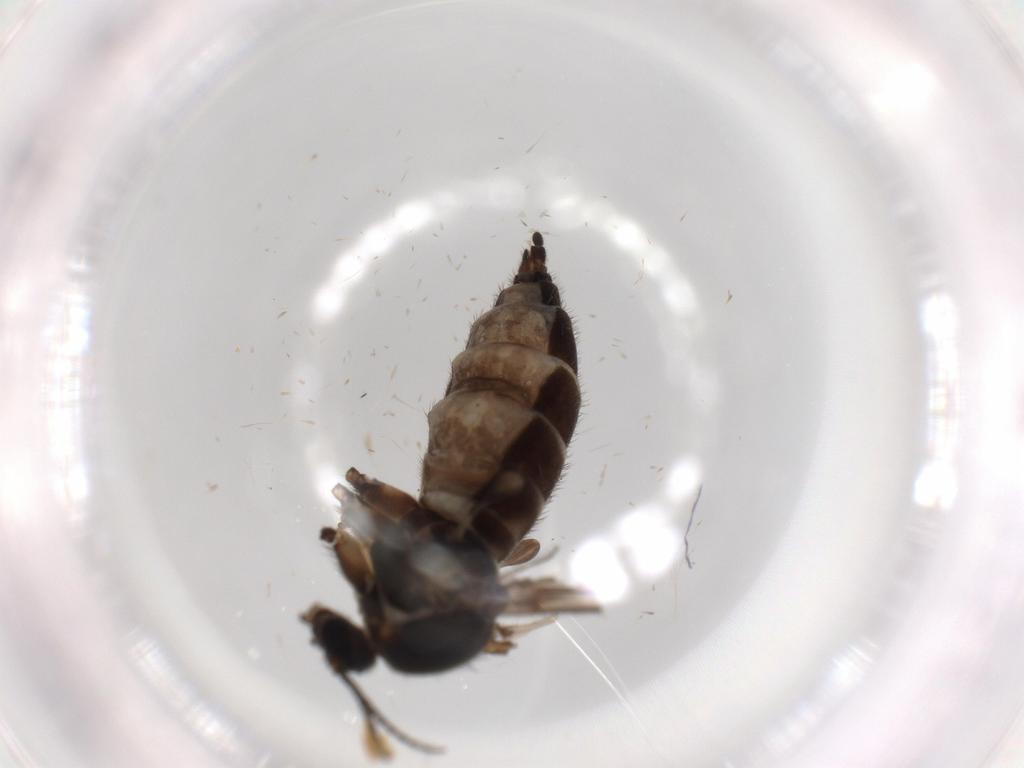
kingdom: Animalia
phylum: Arthropoda
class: Insecta
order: Diptera
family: Sciaridae
